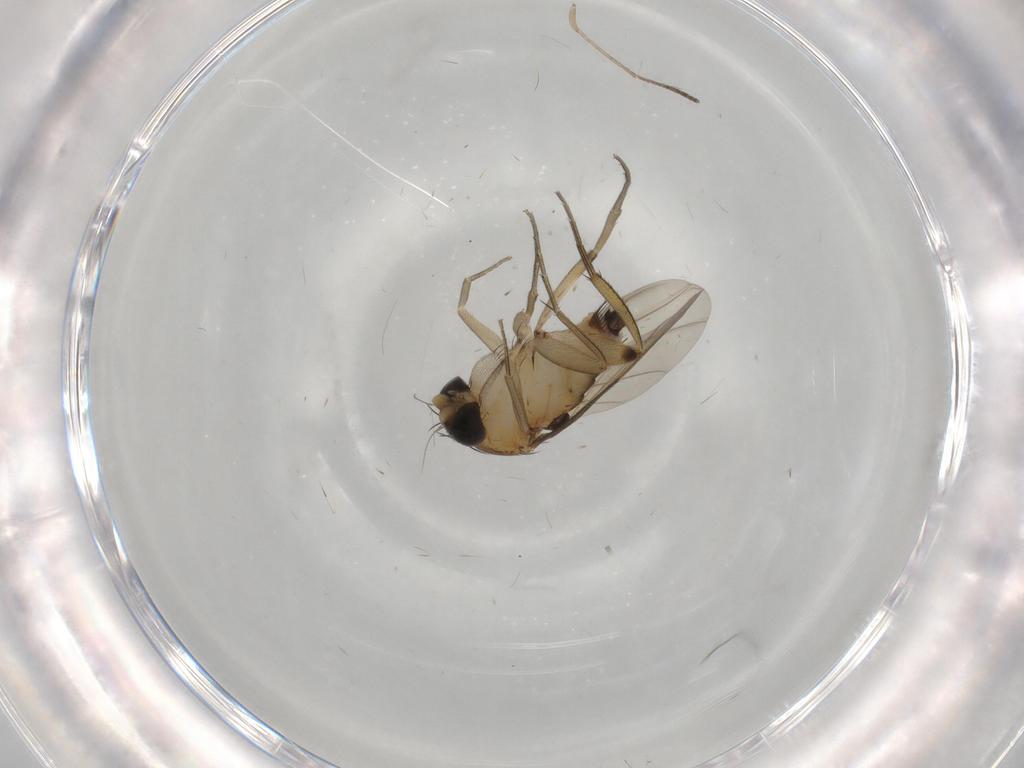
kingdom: Animalia
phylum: Arthropoda
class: Insecta
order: Diptera
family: Phoridae
